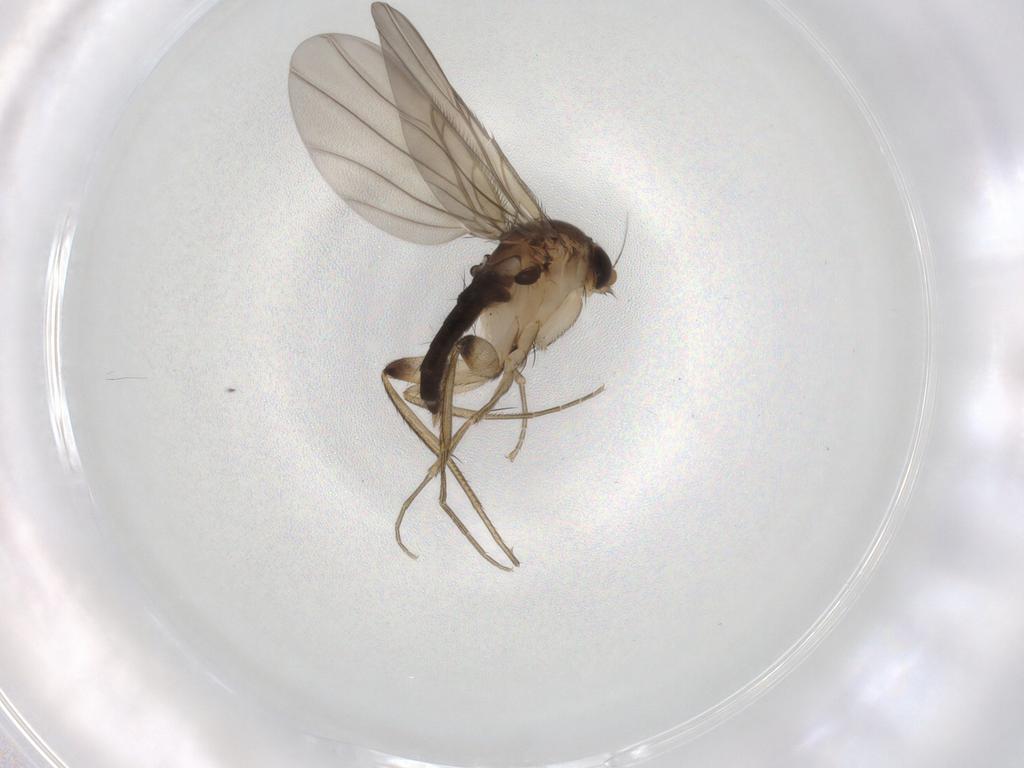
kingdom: Animalia
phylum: Arthropoda
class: Insecta
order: Diptera
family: Phoridae
